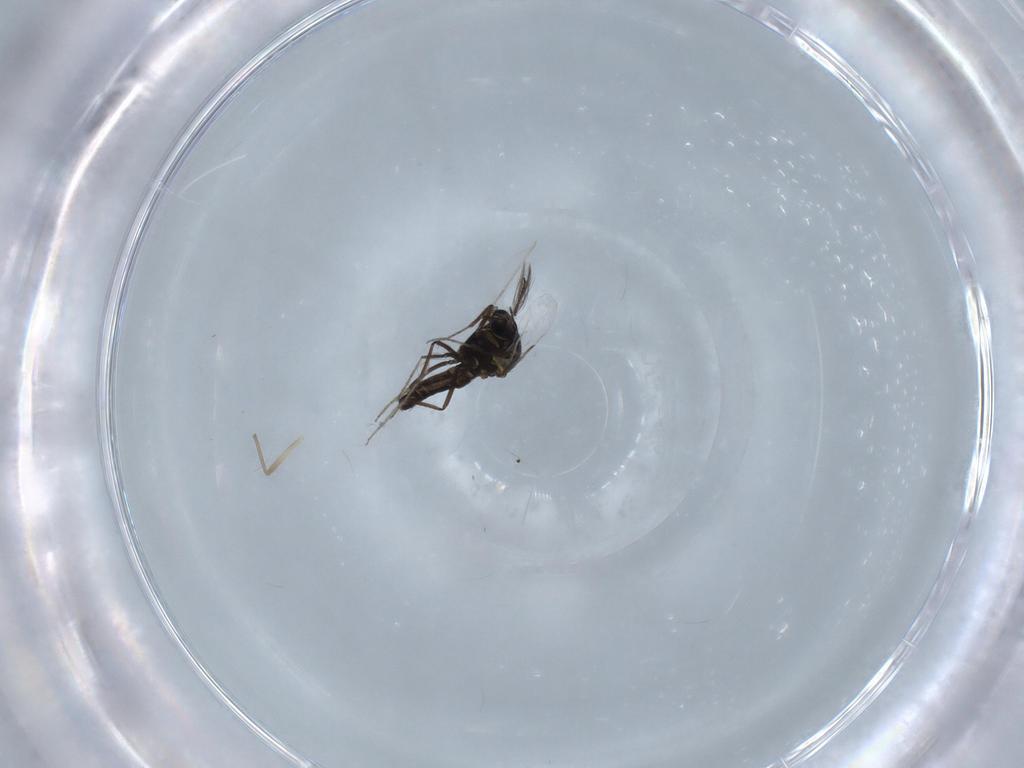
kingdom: Animalia
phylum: Arthropoda
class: Insecta
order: Diptera
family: Ceratopogonidae
